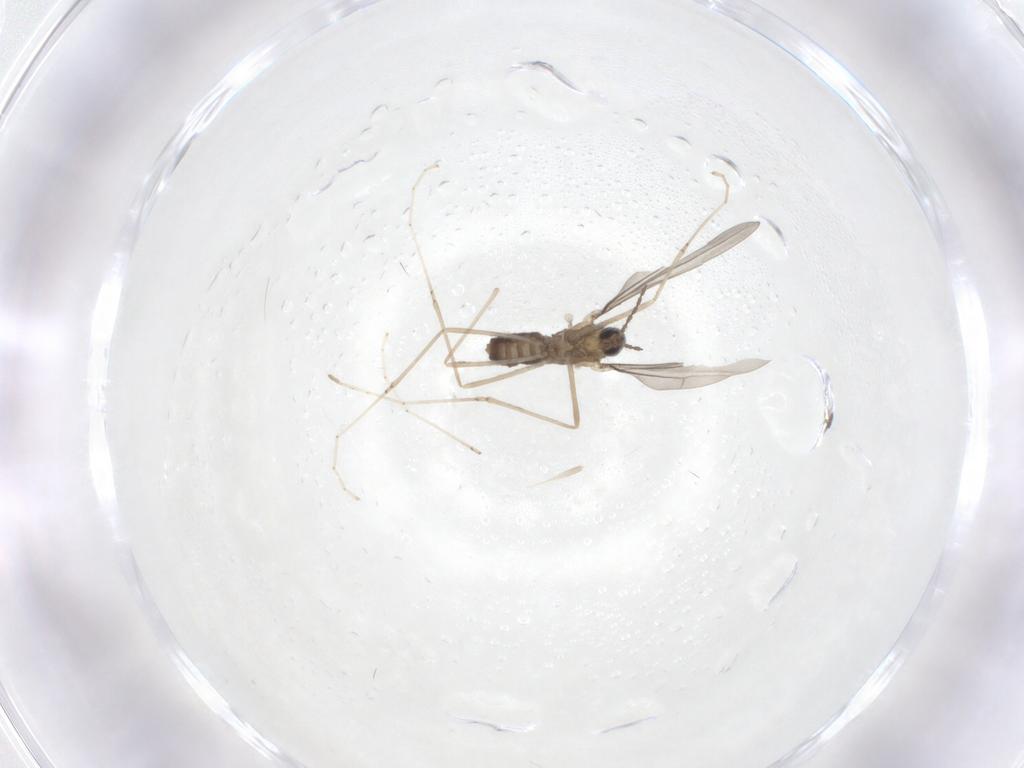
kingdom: Animalia
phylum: Arthropoda
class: Insecta
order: Diptera
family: Cecidomyiidae
